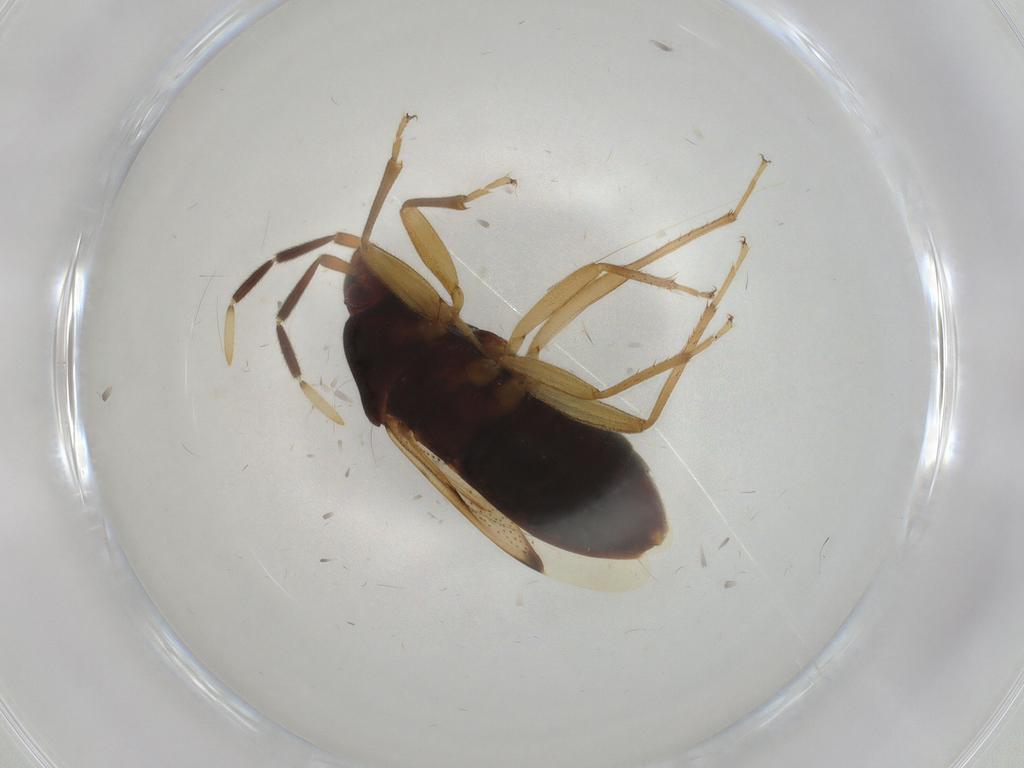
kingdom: Animalia
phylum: Arthropoda
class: Insecta
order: Hemiptera
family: Rhyparochromidae
